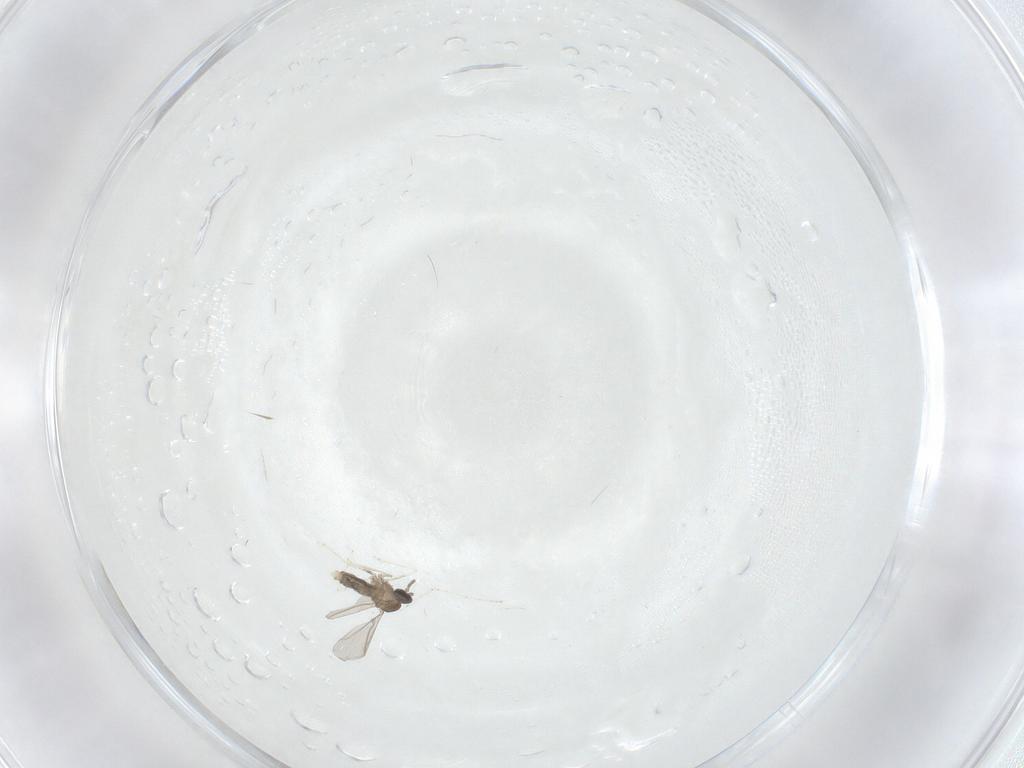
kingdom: Animalia
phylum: Arthropoda
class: Insecta
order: Diptera
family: Cecidomyiidae
